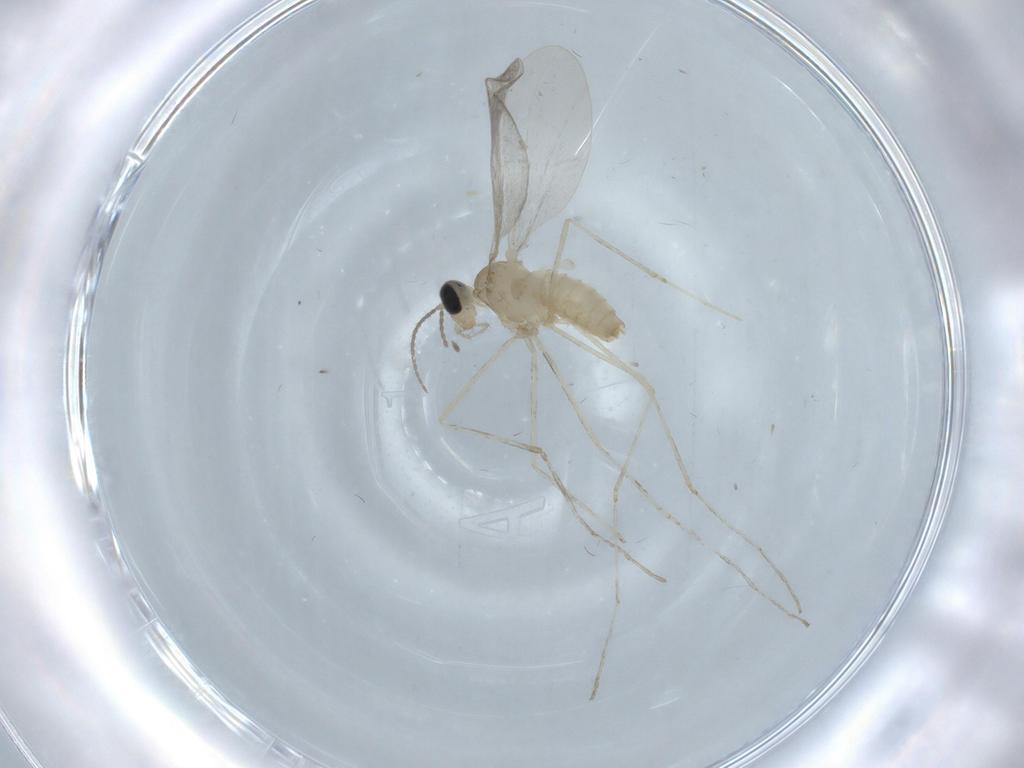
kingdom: Animalia
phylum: Arthropoda
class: Insecta
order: Diptera
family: Cecidomyiidae
